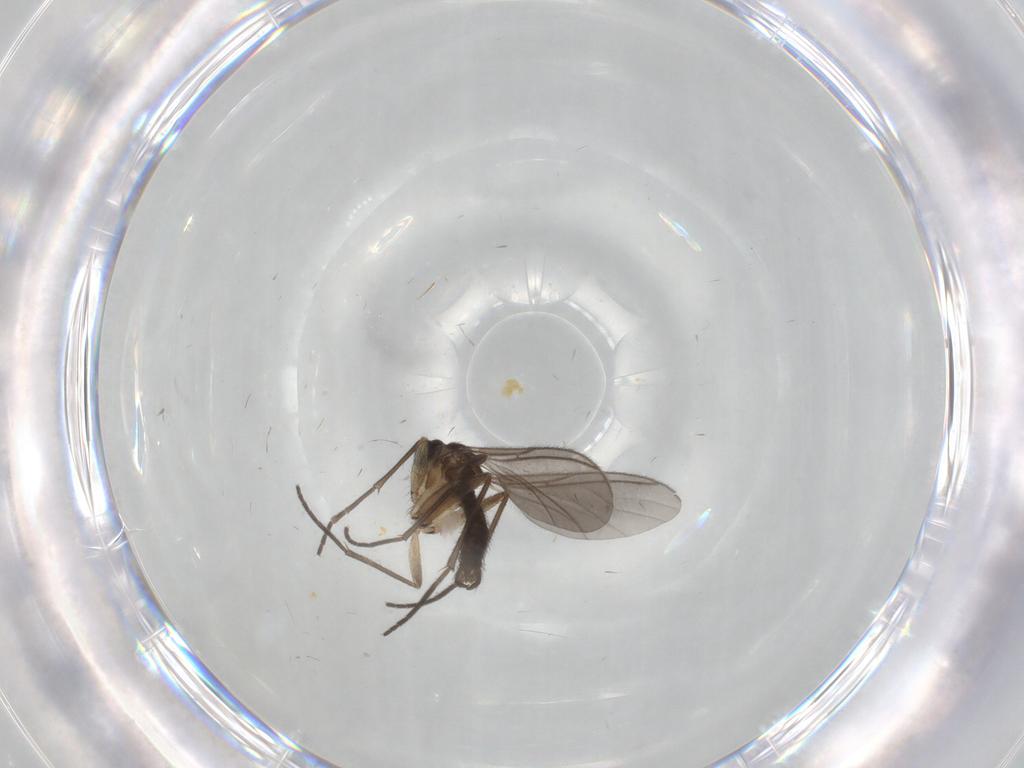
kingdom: Animalia
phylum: Arthropoda
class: Insecta
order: Diptera
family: Sciaridae
